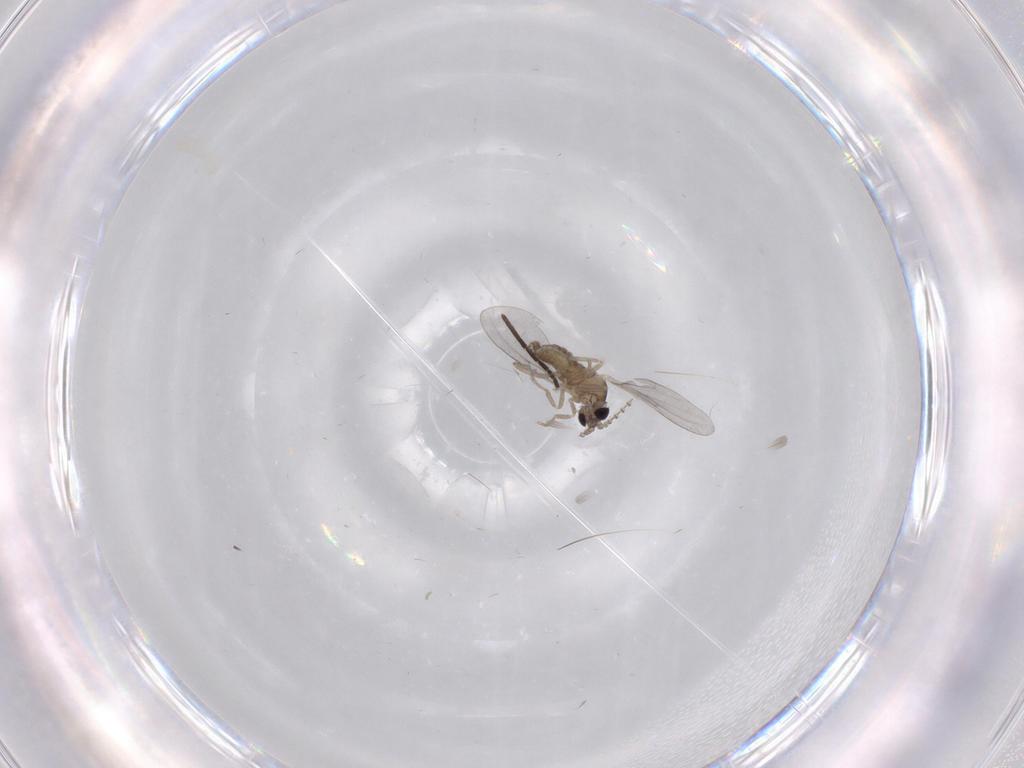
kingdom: Animalia
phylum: Arthropoda
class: Insecta
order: Diptera
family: Cecidomyiidae
